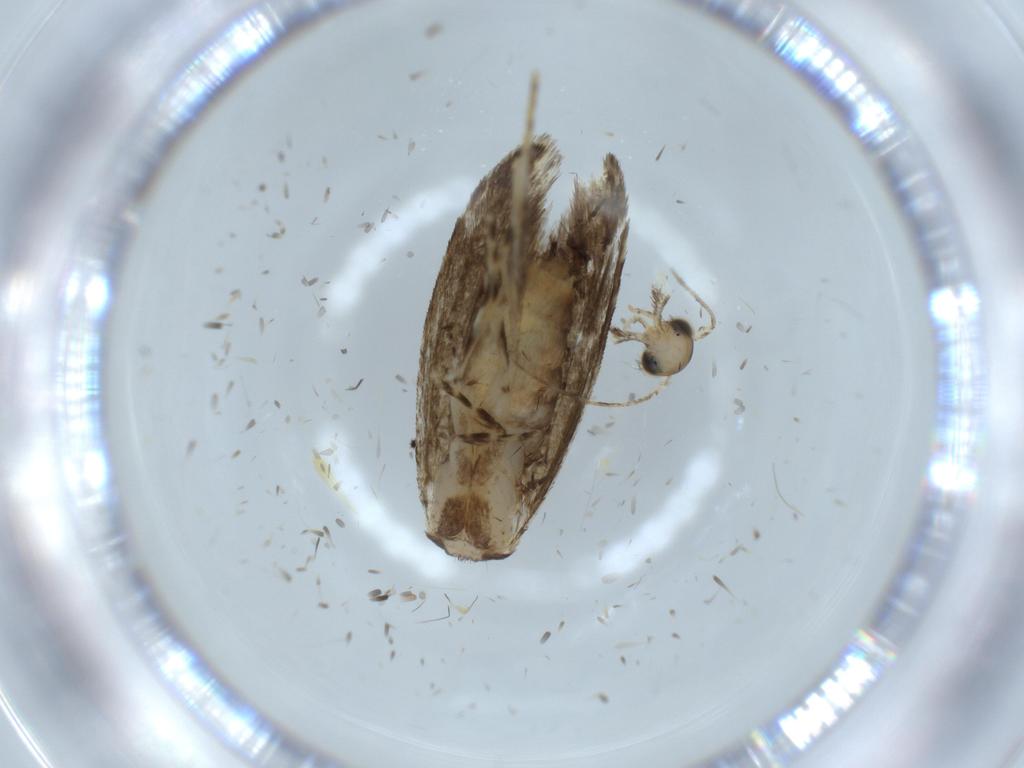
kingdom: Animalia
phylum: Arthropoda
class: Insecta
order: Lepidoptera
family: Tineidae
